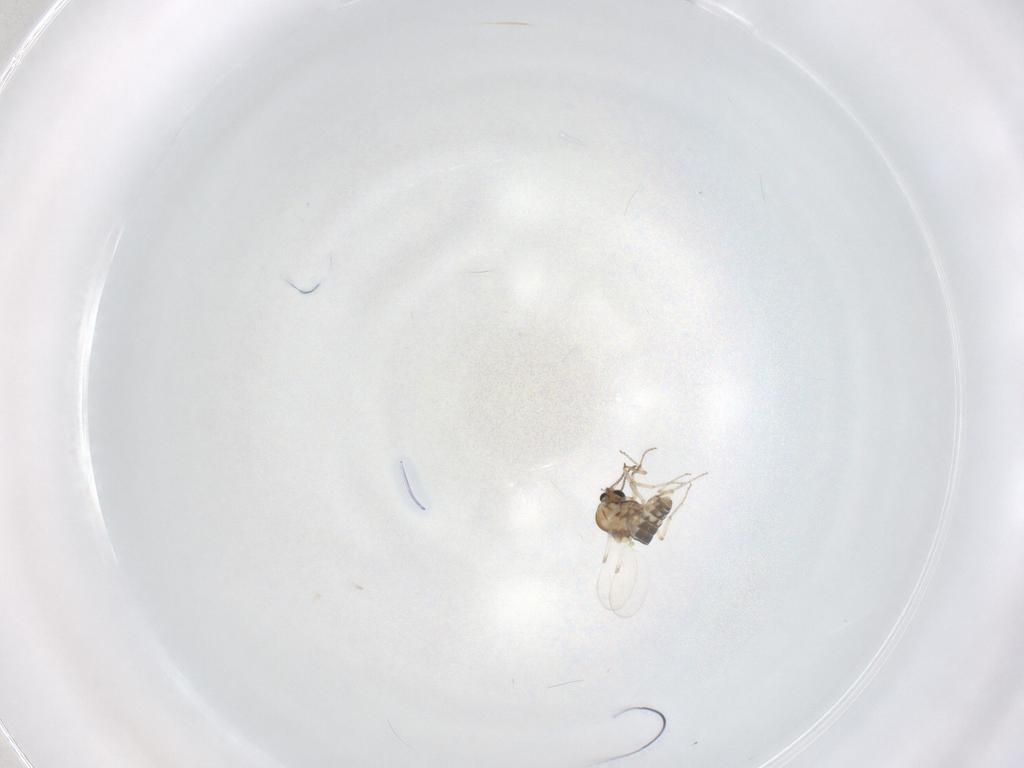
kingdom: Animalia
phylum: Arthropoda
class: Insecta
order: Diptera
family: Ceratopogonidae
